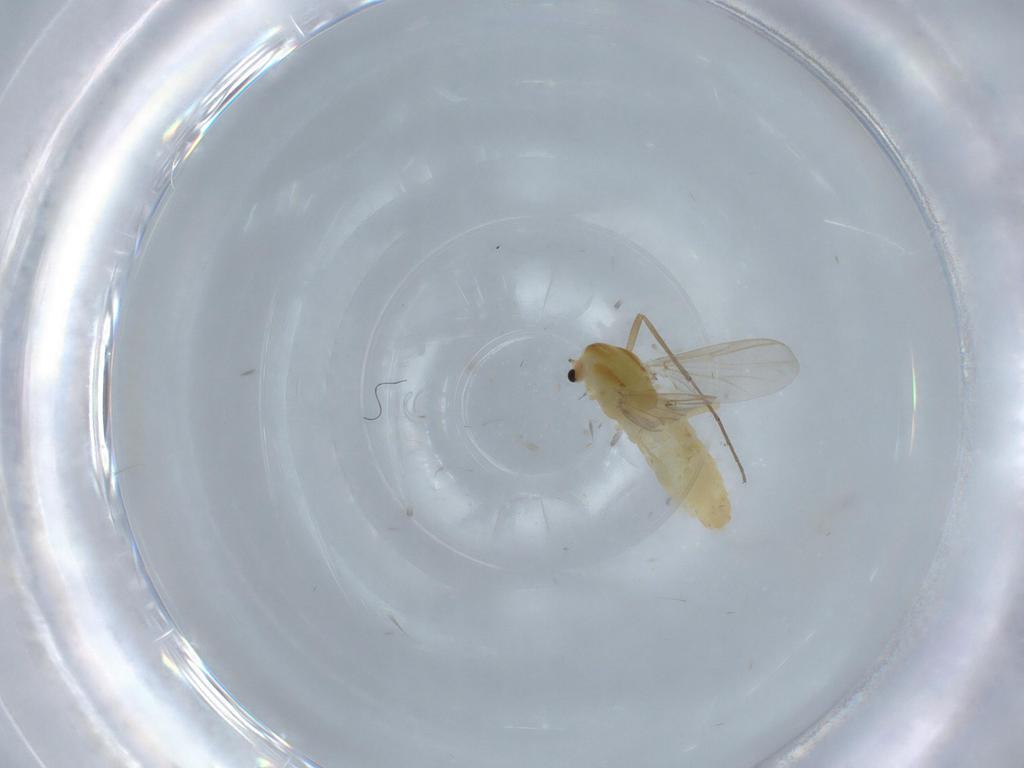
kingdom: Animalia
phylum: Arthropoda
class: Insecta
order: Diptera
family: Chironomidae
